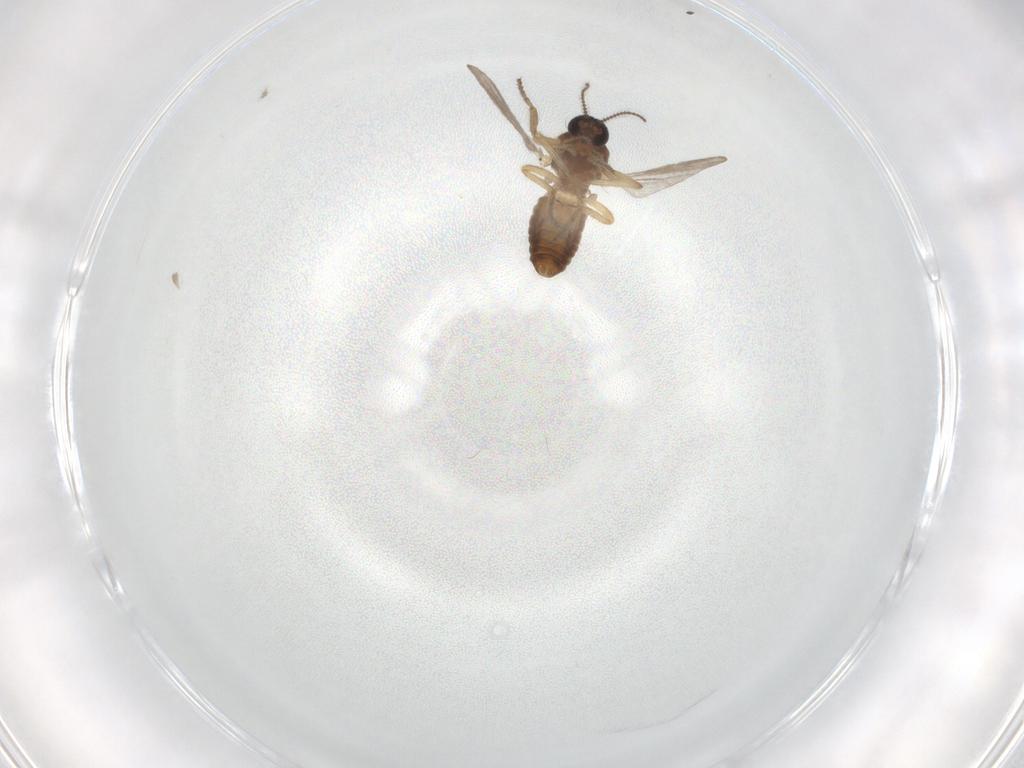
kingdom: Animalia
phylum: Arthropoda
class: Insecta
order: Diptera
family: Ceratopogonidae
